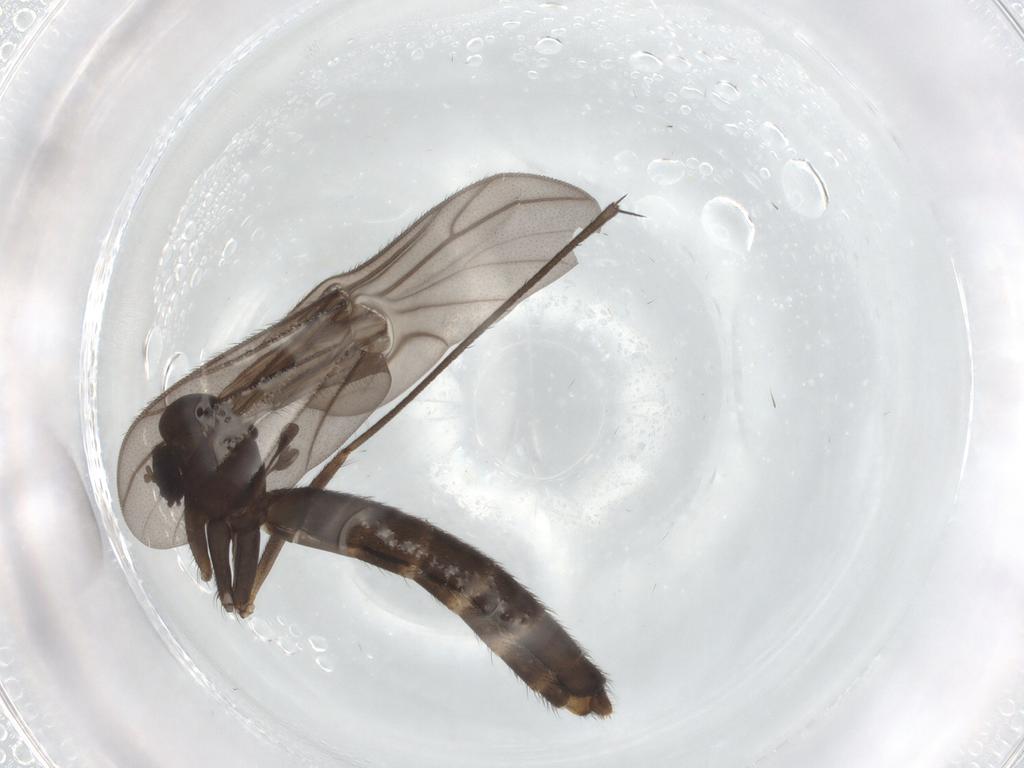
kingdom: Animalia
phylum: Arthropoda
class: Insecta
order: Diptera
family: Keroplatidae
